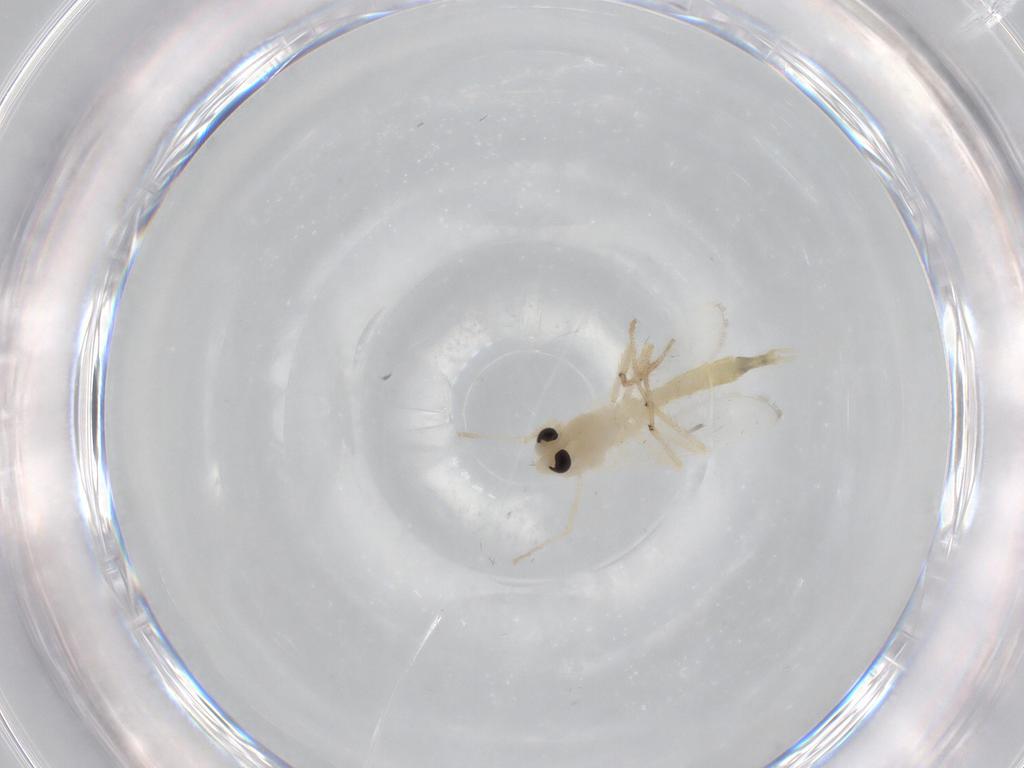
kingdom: Animalia
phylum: Arthropoda
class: Insecta
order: Diptera
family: Chironomidae
